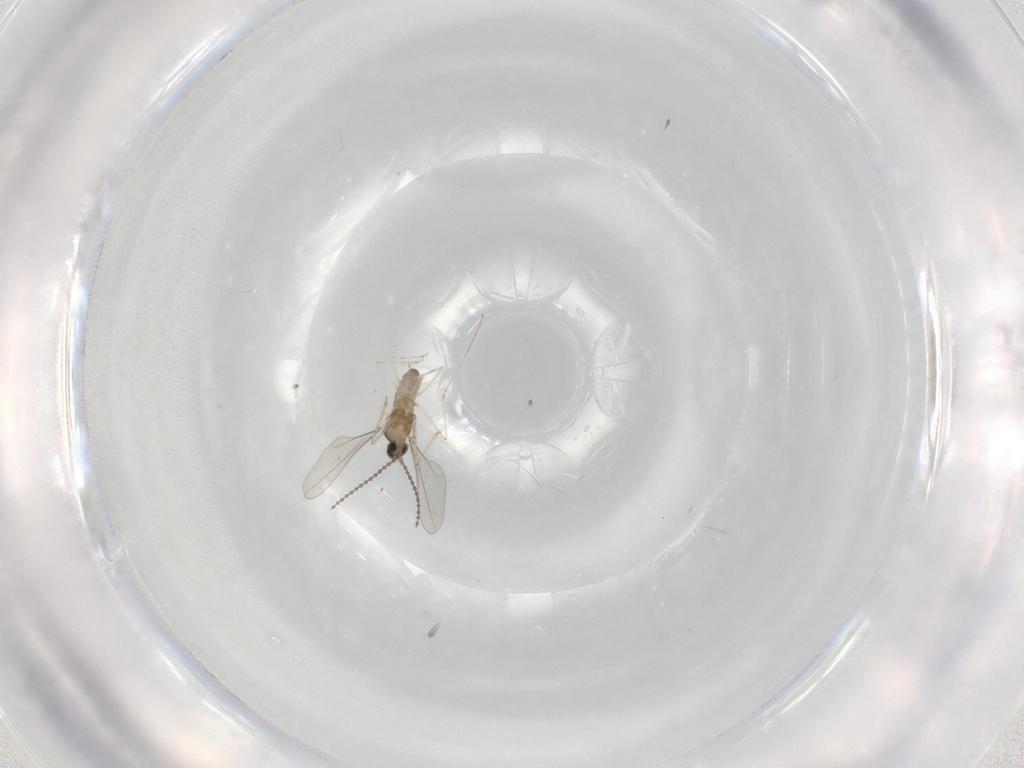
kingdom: Animalia
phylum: Arthropoda
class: Insecta
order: Diptera
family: Cecidomyiidae
